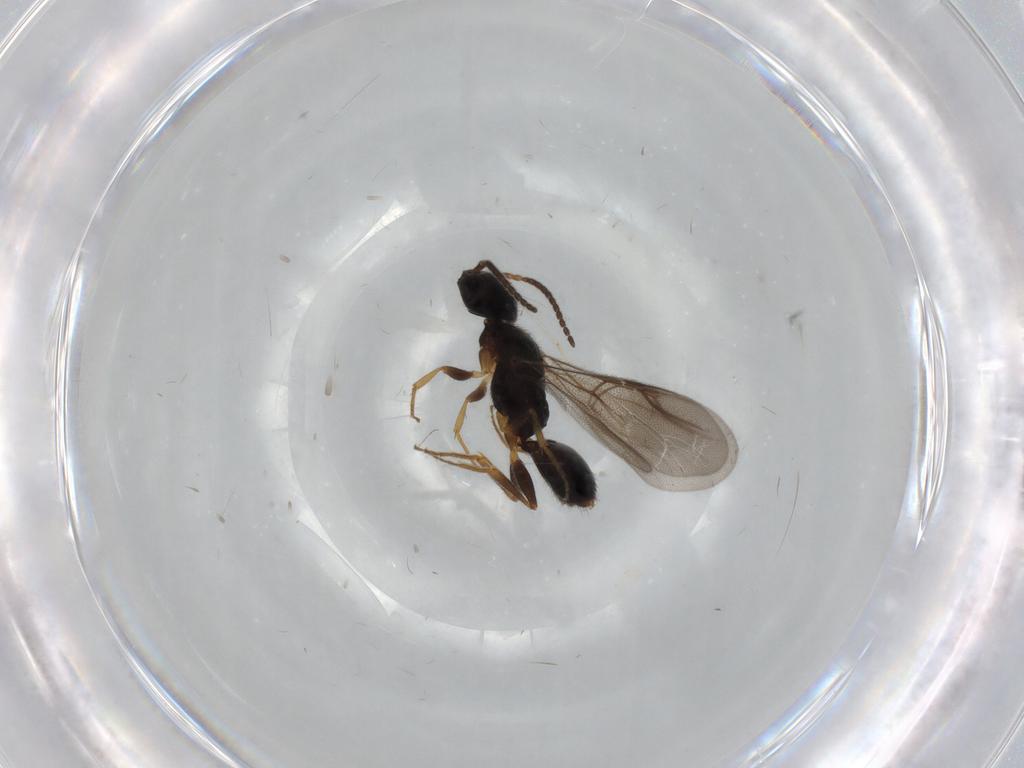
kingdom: Animalia
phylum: Arthropoda
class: Insecta
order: Hymenoptera
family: Bethylidae
